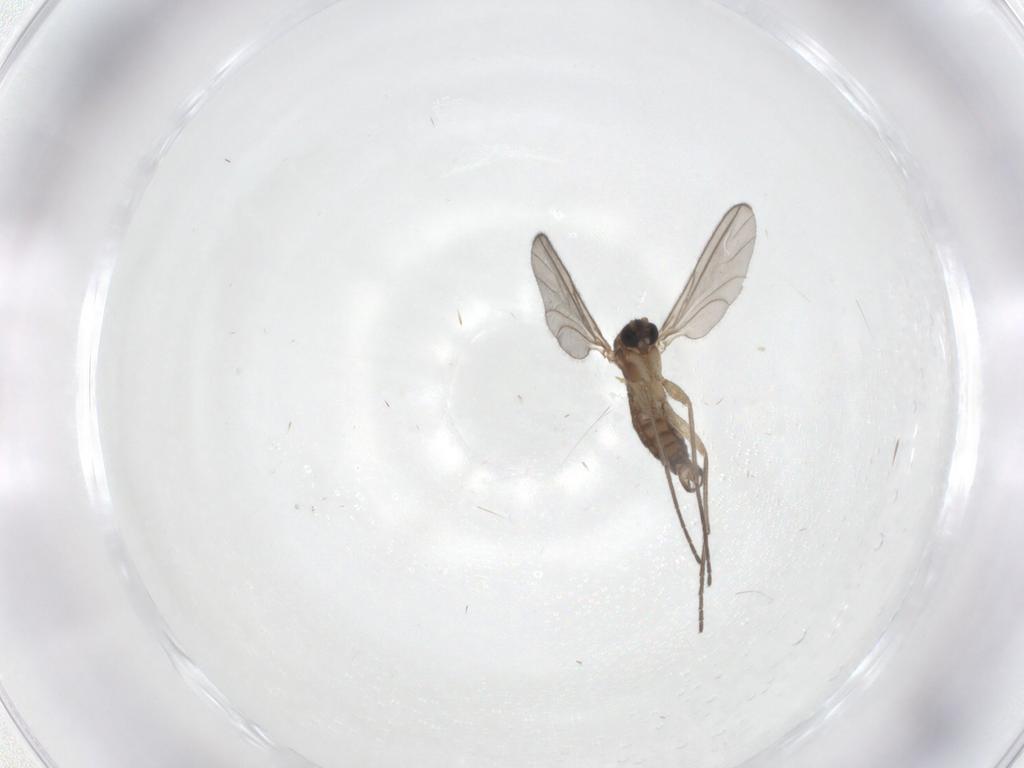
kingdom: Animalia
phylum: Arthropoda
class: Insecta
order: Diptera
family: Sciaridae
